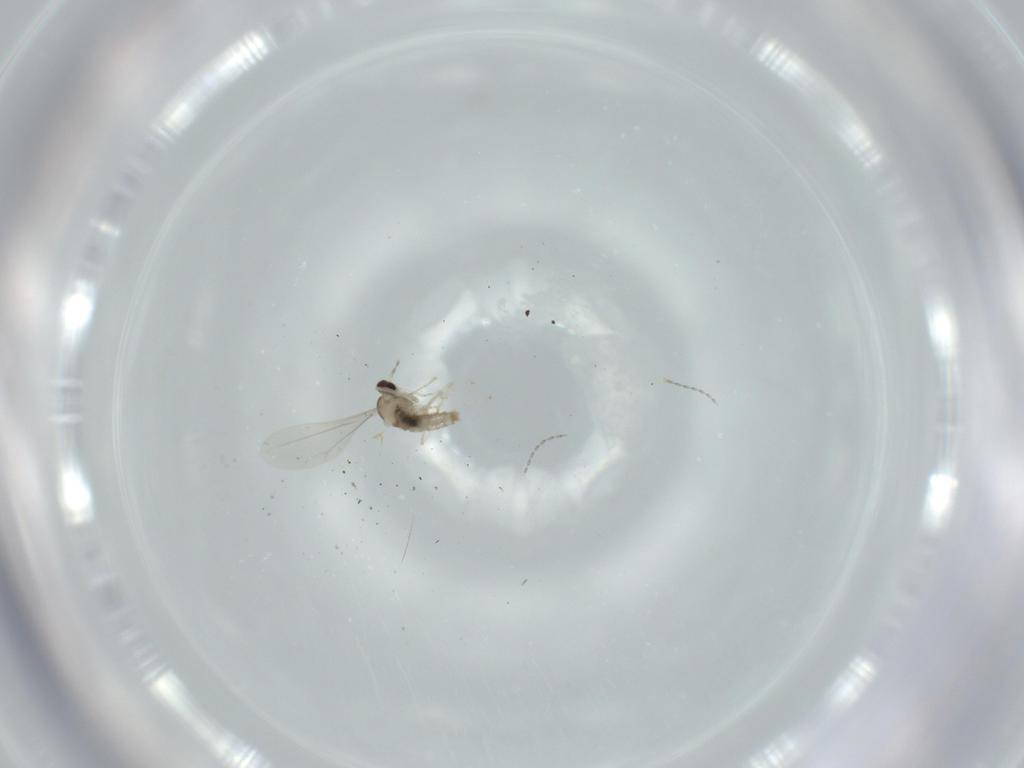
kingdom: Animalia
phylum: Arthropoda
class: Insecta
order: Diptera
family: Cecidomyiidae
